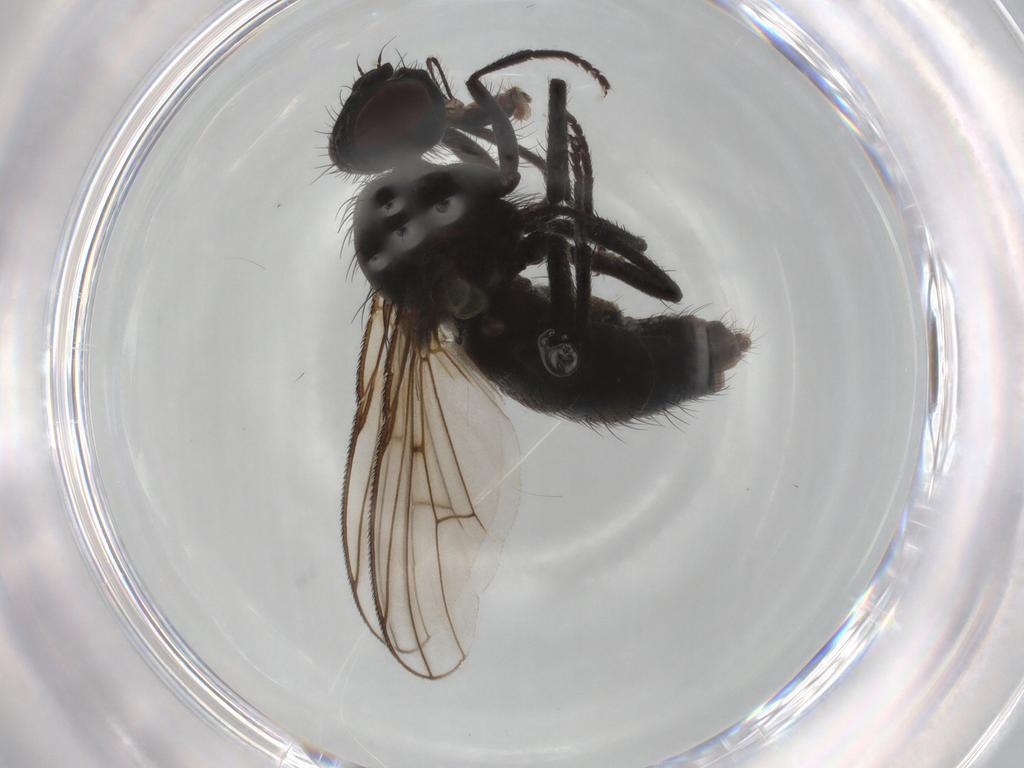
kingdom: Animalia
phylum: Arthropoda
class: Insecta
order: Diptera
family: Muscidae
